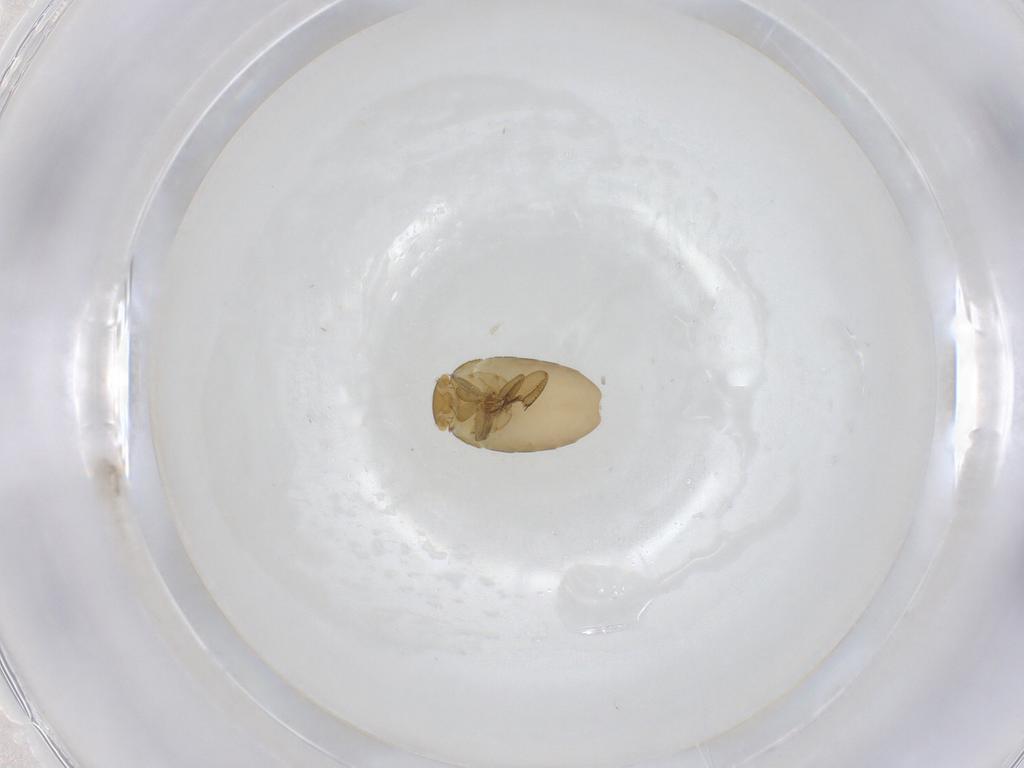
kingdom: Animalia
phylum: Arthropoda
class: Insecta
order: Diptera
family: Phoridae
